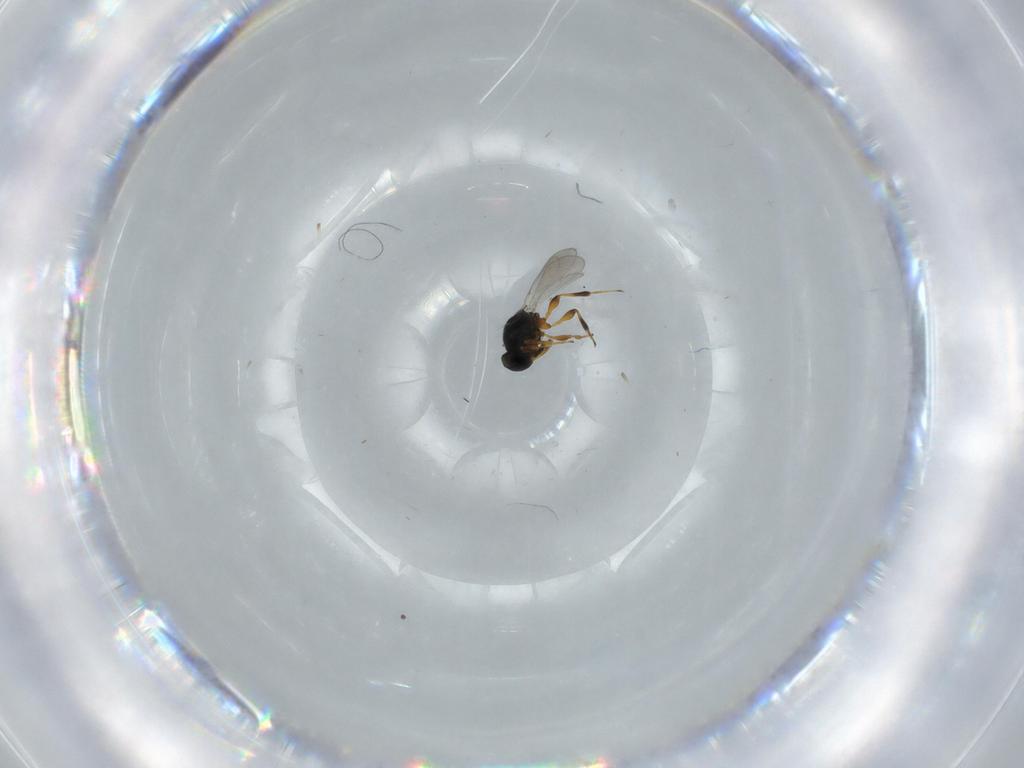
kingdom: Animalia
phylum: Arthropoda
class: Insecta
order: Hymenoptera
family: Platygastridae
